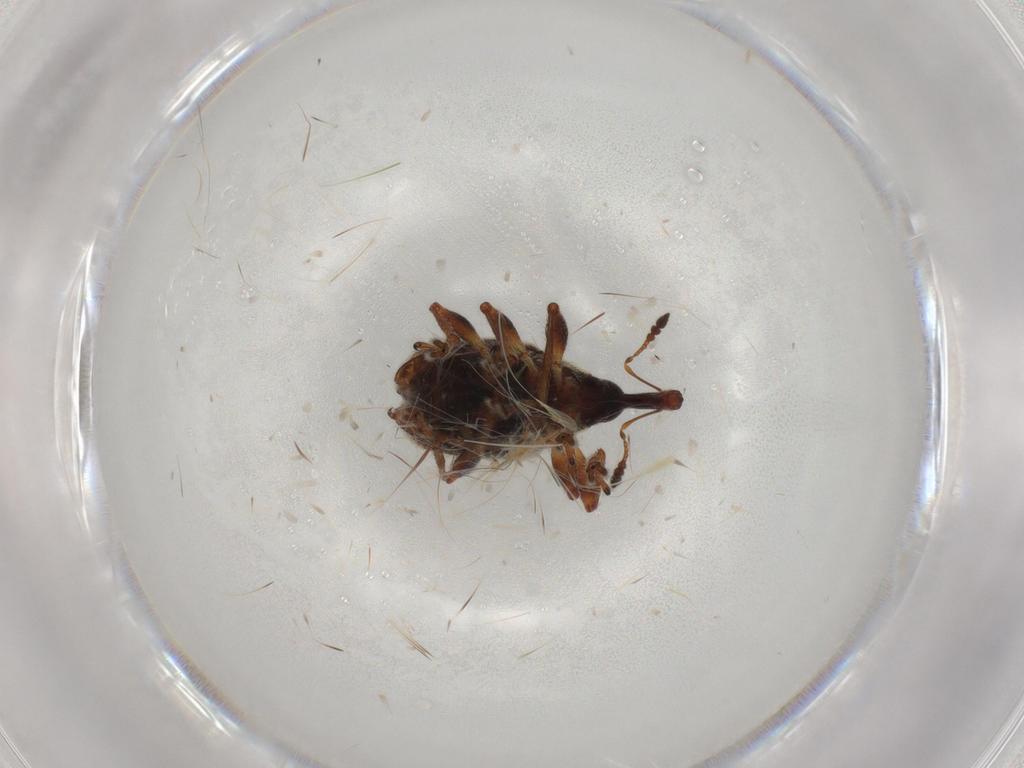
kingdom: Animalia
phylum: Arthropoda
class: Insecta
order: Coleoptera
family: Brentidae
